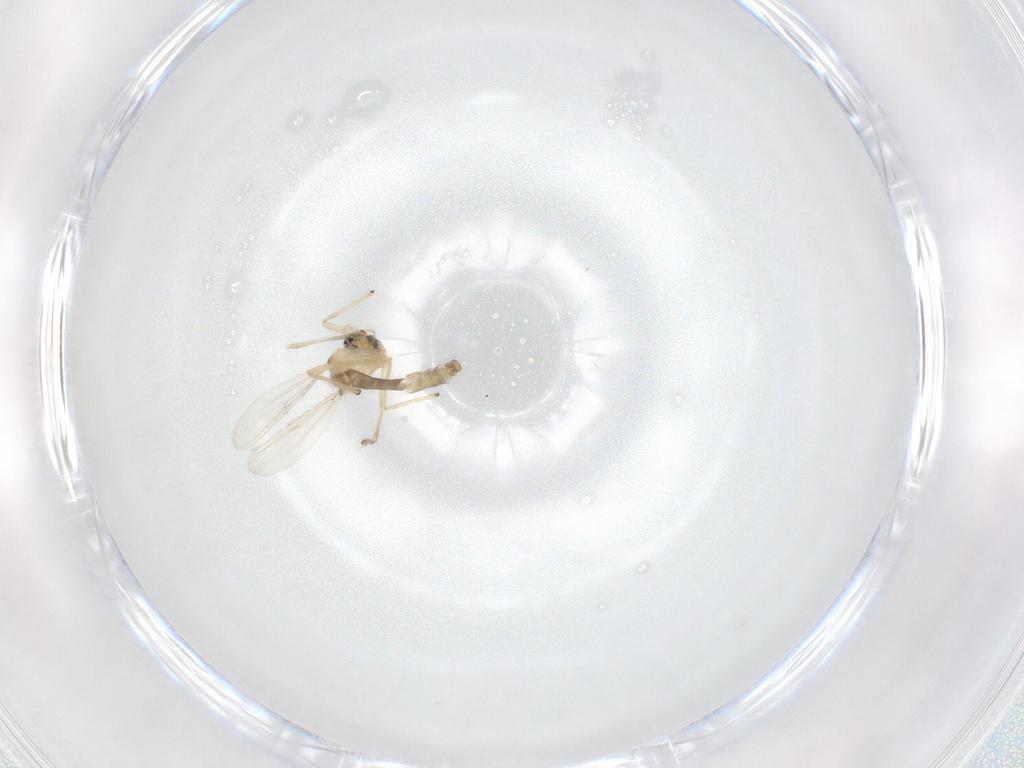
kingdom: Animalia
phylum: Arthropoda
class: Insecta
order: Diptera
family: Chironomidae
